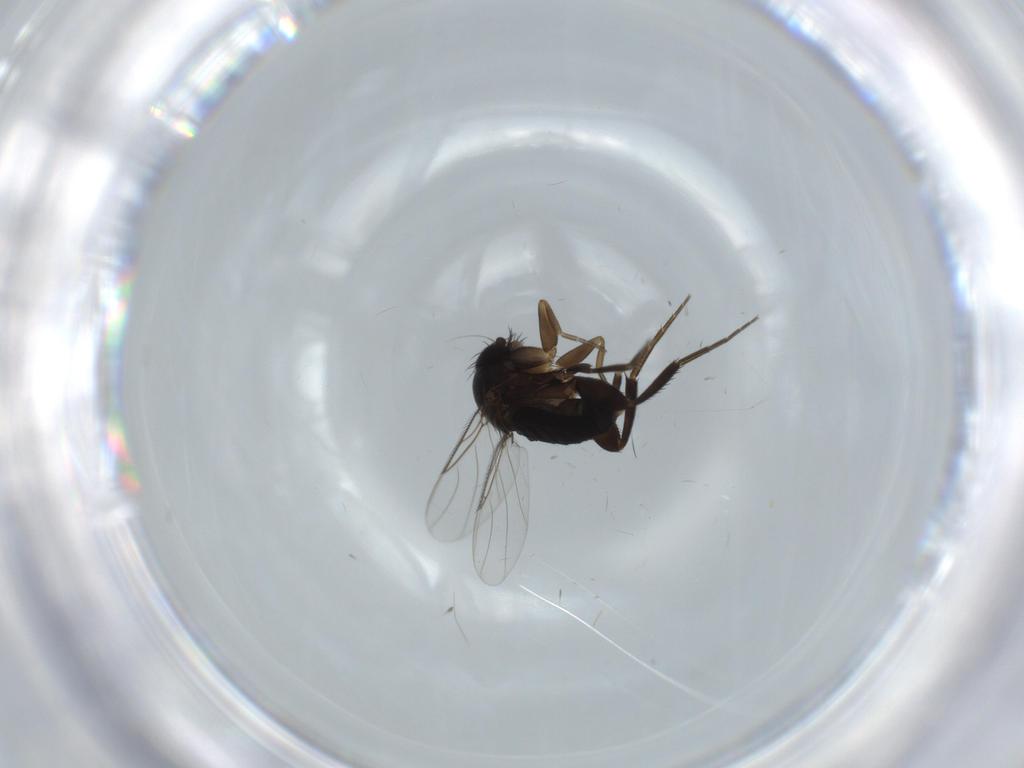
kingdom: Animalia
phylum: Arthropoda
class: Insecta
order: Diptera
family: Phoridae
